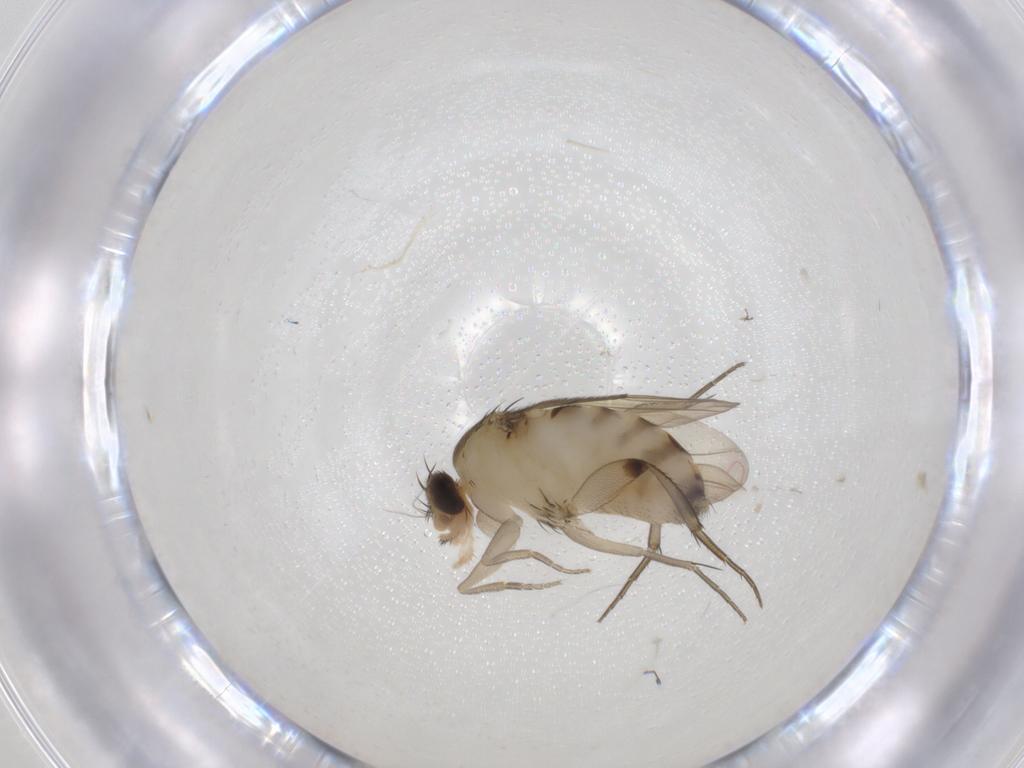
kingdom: Animalia
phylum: Arthropoda
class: Insecta
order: Diptera
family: Phoridae
